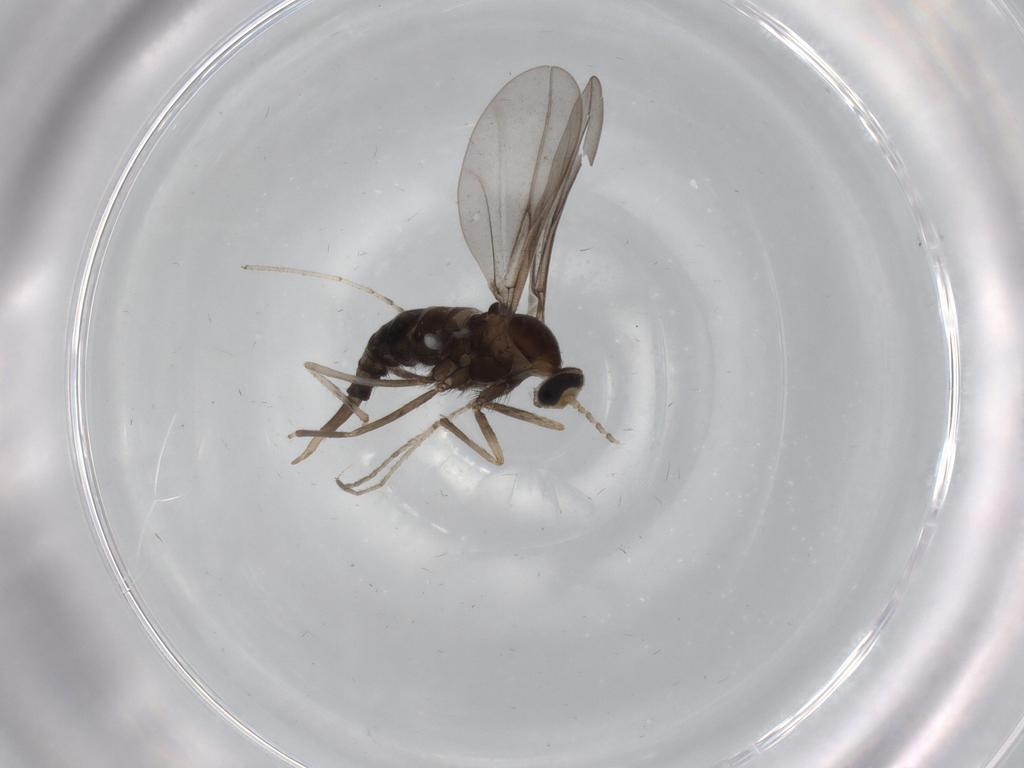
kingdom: Animalia
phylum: Arthropoda
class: Insecta
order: Diptera
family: Cecidomyiidae
